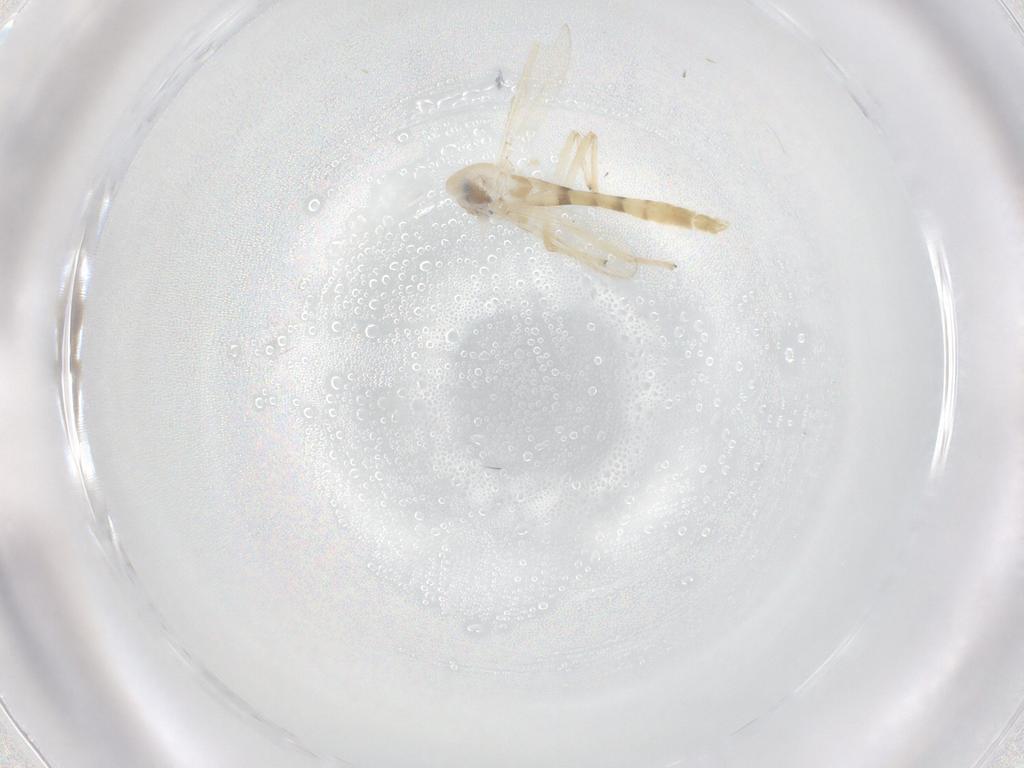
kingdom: Animalia
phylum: Arthropoda
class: Insecta
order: Diptera
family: Chironomidae
